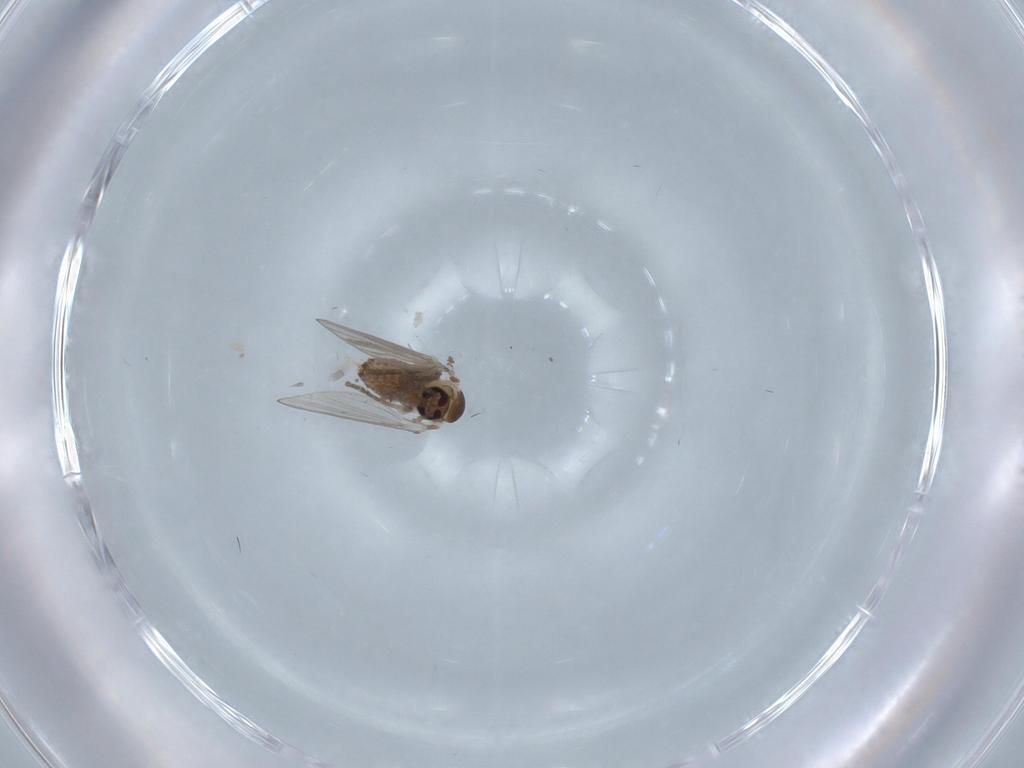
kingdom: Animalia
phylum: Arthropoda
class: Insecta
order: Diptera
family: Psychodidae
